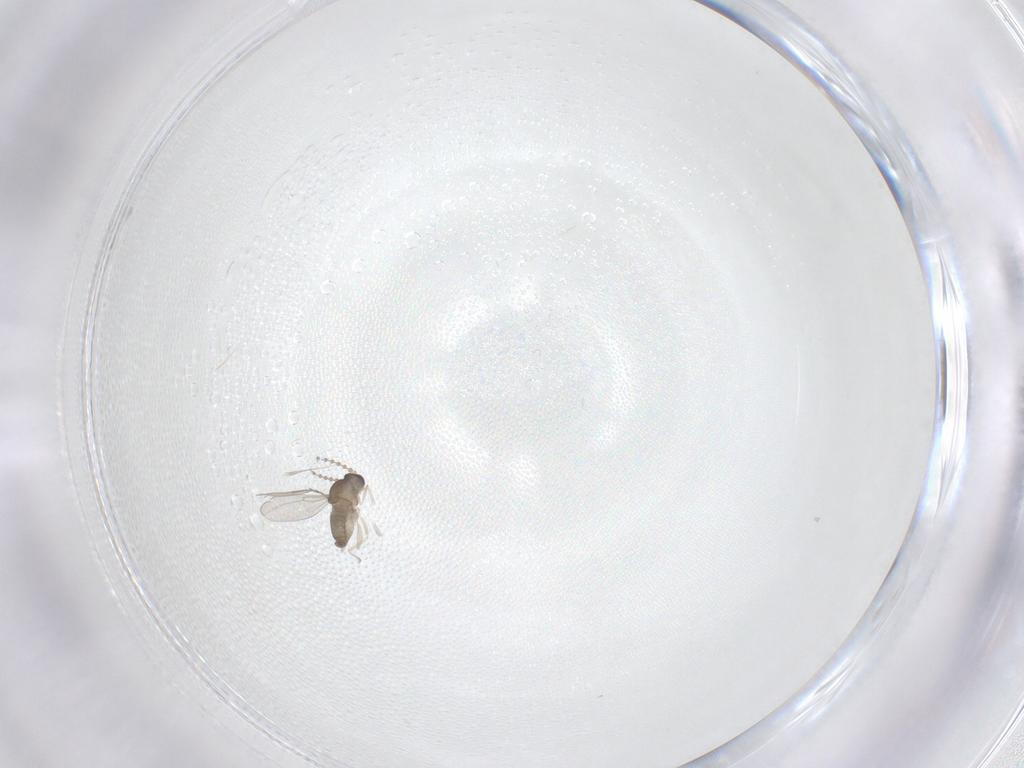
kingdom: Animalia
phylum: Arthropoda
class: Insecta
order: Diptera
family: Cecidomyiidae
